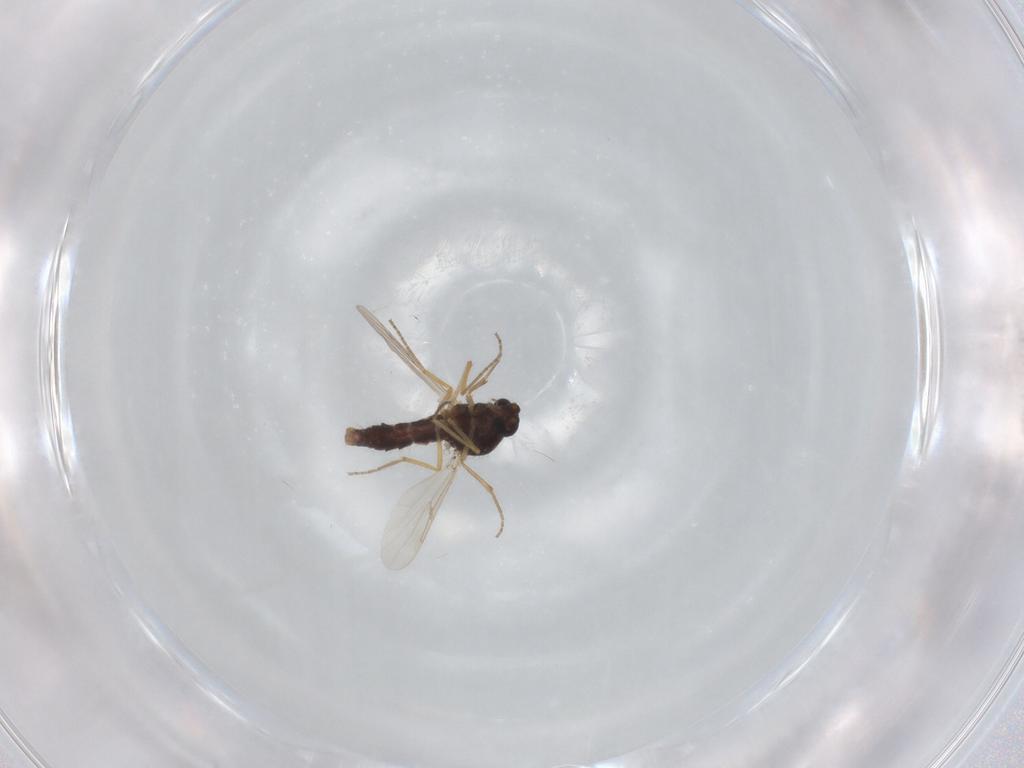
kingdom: Animalia
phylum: Arthropoda
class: Insecta
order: Diptera
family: Ceratopogonidae
